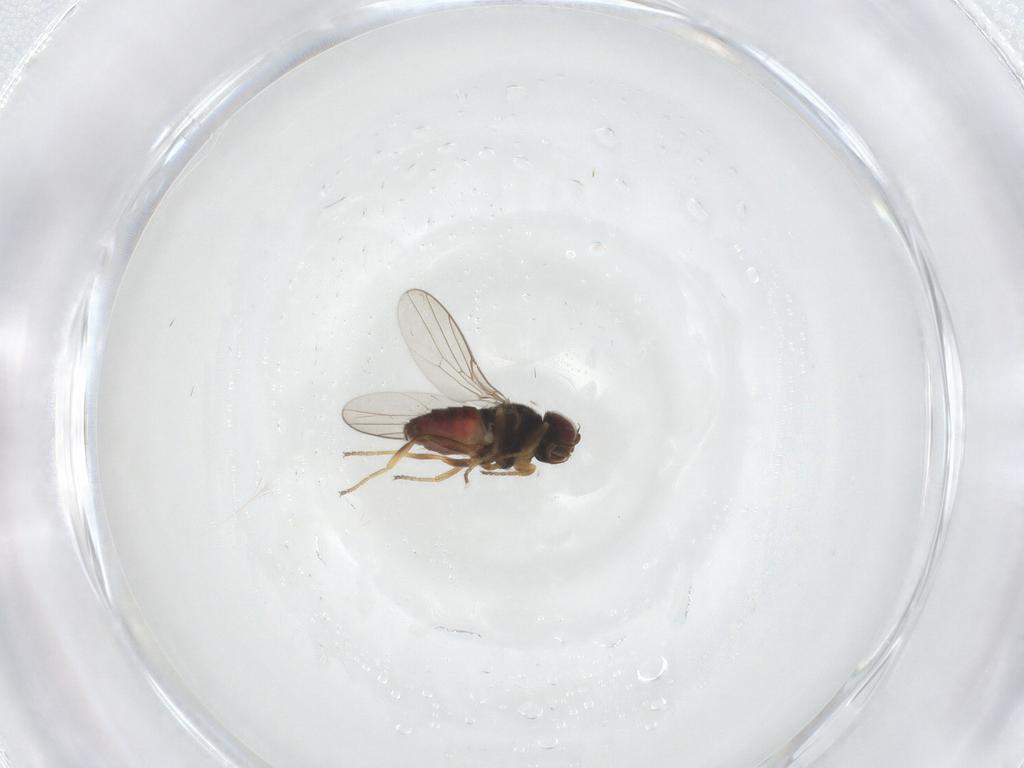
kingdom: Animalia
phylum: Arthropoda
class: Insecta
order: Diptera
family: Chloropidae
